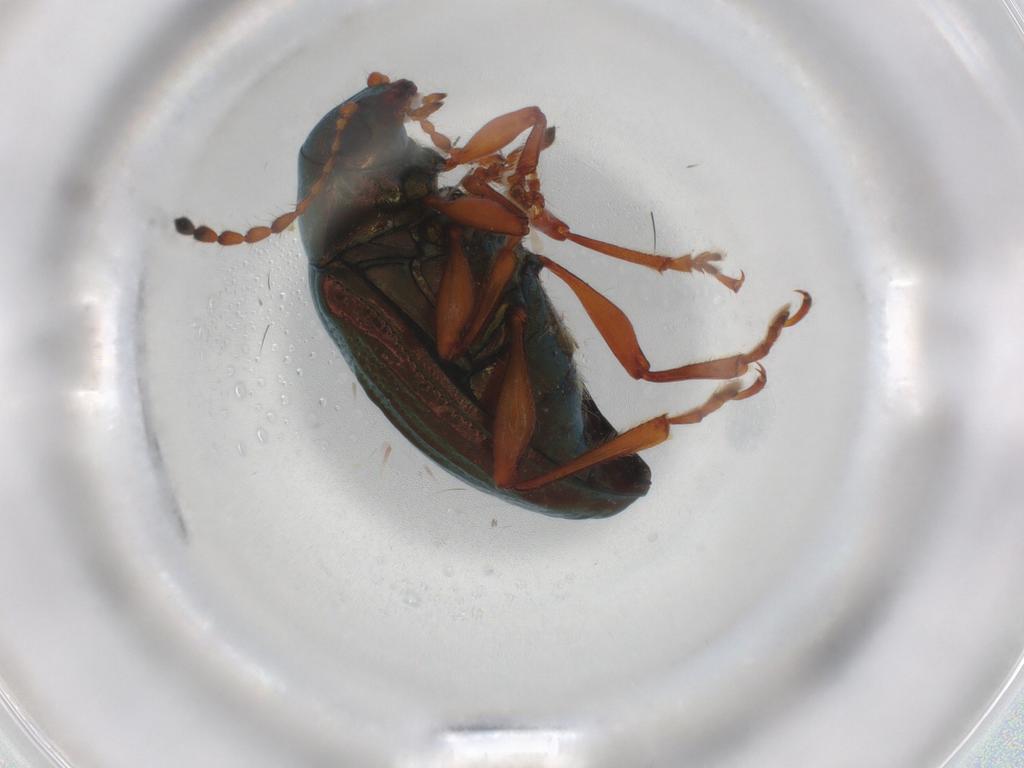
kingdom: Animalia
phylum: Arthropoda
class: Insecta
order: Coleoptera
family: Chrysomelidae
